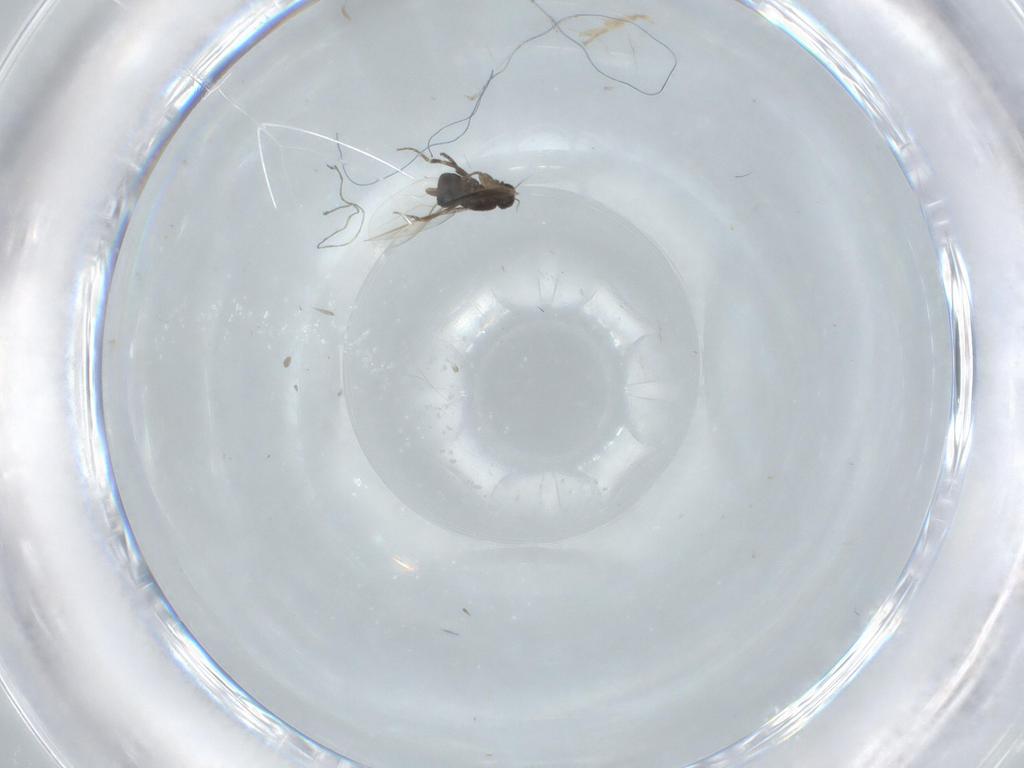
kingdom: Animalia
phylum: Arthropoda
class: Insecta
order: Diptera
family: Phoridae
